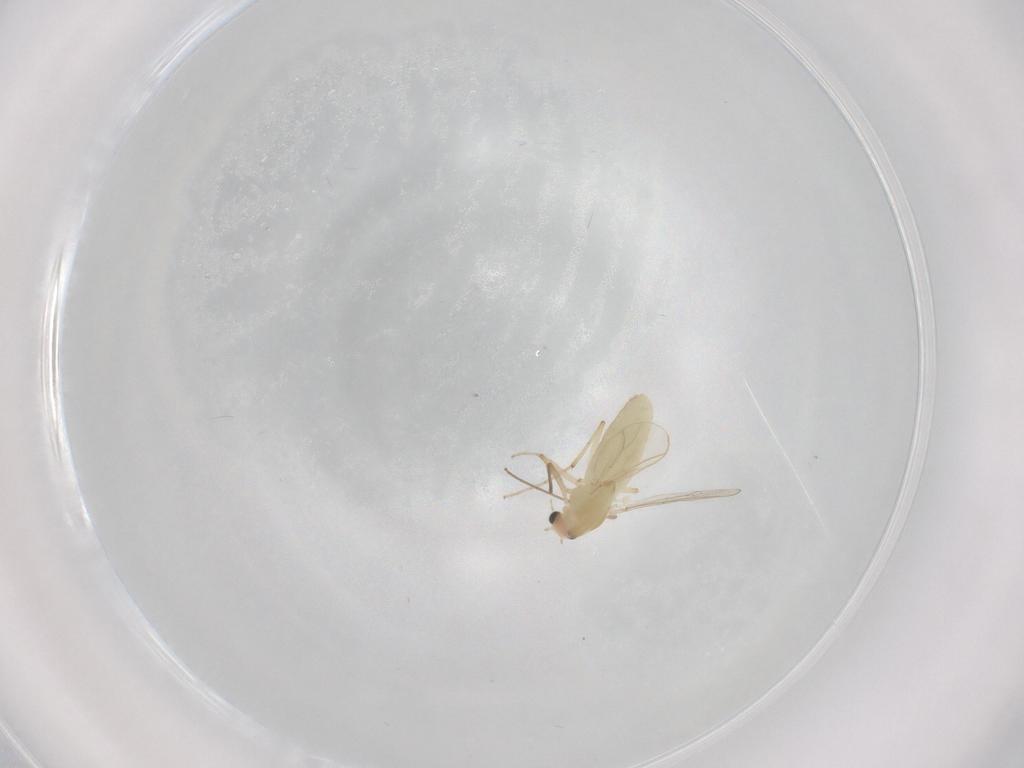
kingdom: Animalia
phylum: Arthropoda
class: Insecta
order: Diptera
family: Chironomidae
